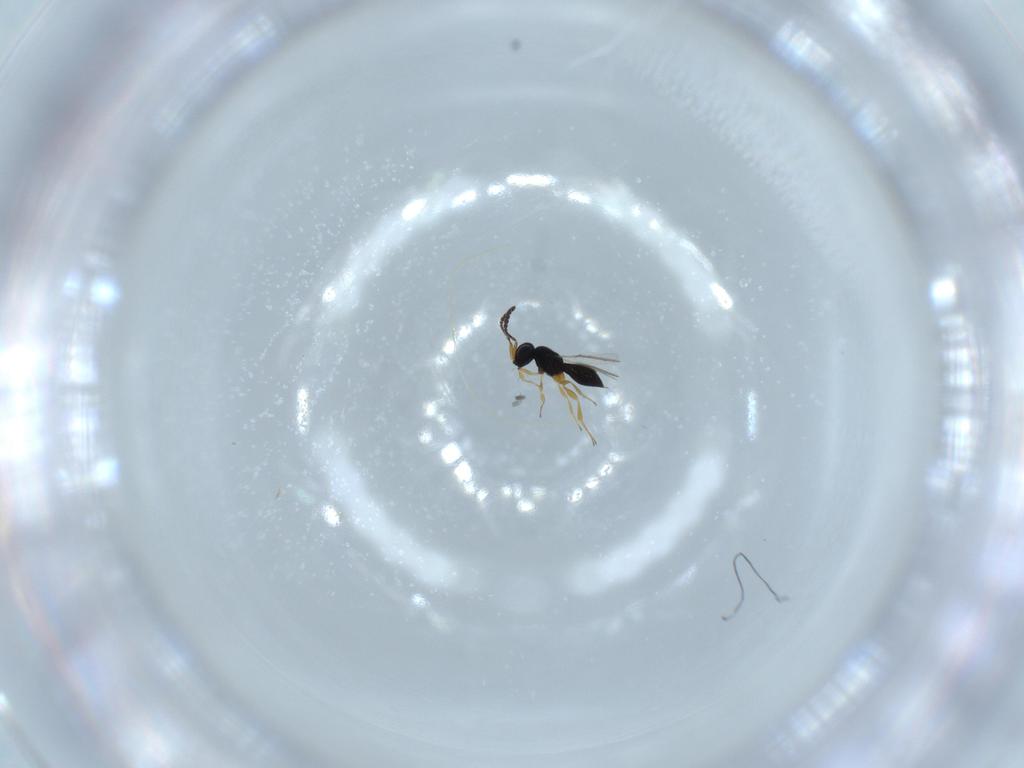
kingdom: Animalia
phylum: Arthropoda
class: Insecta
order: Hymenoptera
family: Scelionidae
